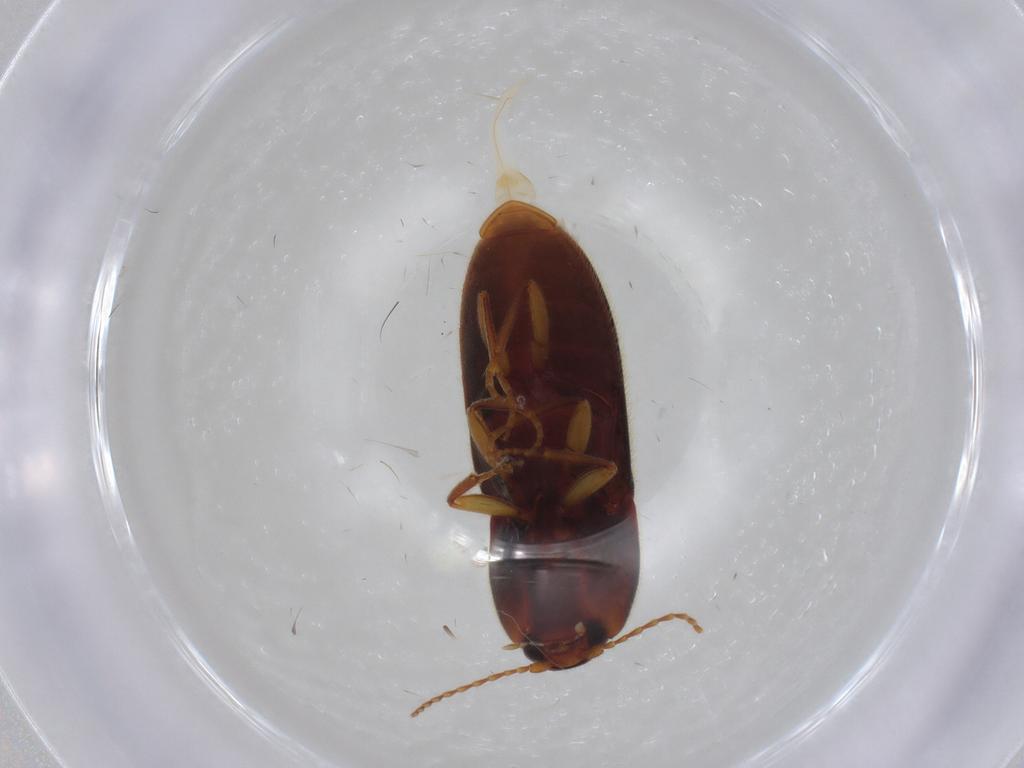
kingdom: Animalia
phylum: Arthropoda
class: Insecta
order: Coleoptera
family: Elateridae
